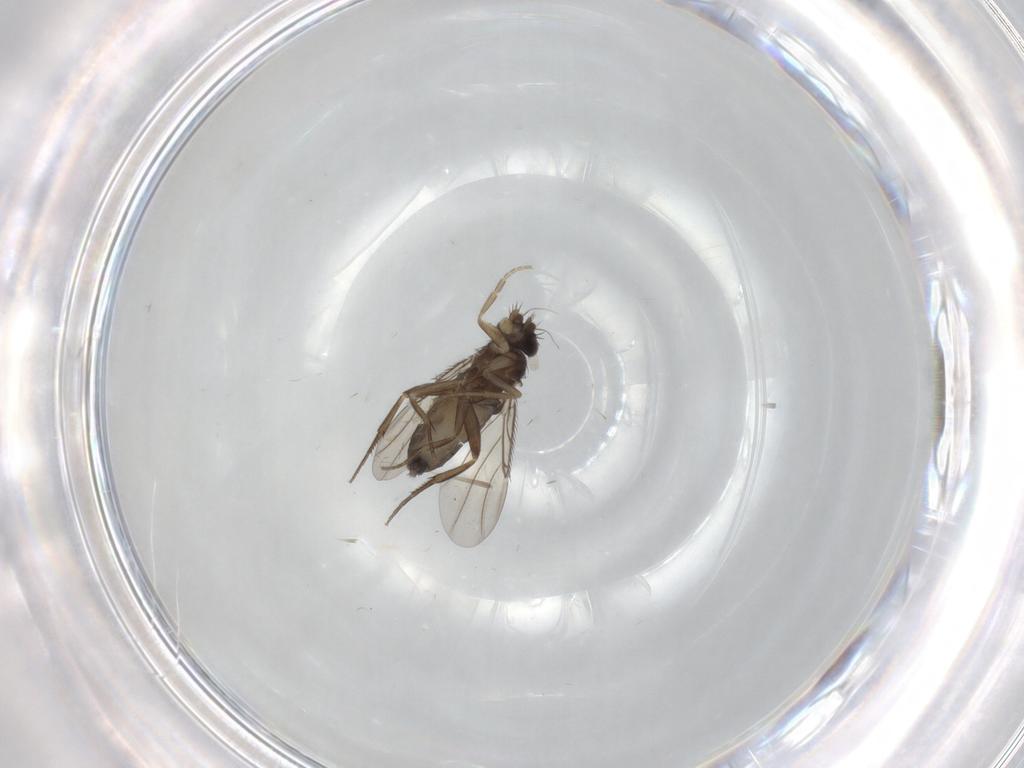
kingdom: Animalia
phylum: Arthropoda
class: Insecta
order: Diptera
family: Phoridae
